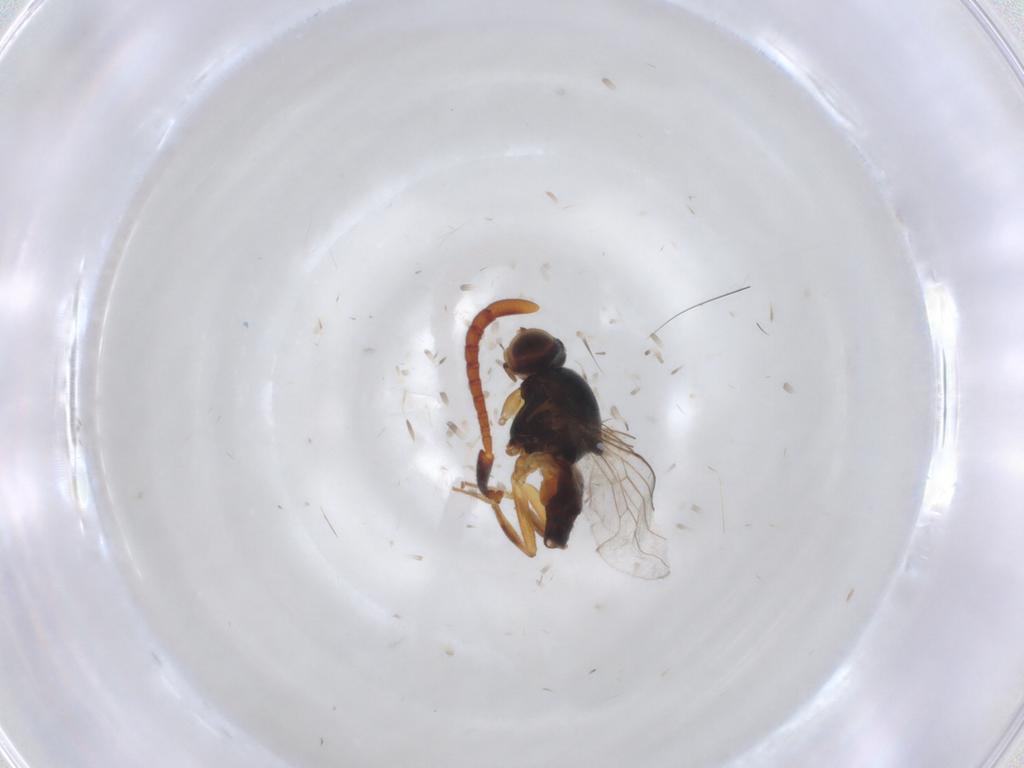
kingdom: Animalia
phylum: Arthropoda
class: Insecta
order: Diptera
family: Chloropidae
